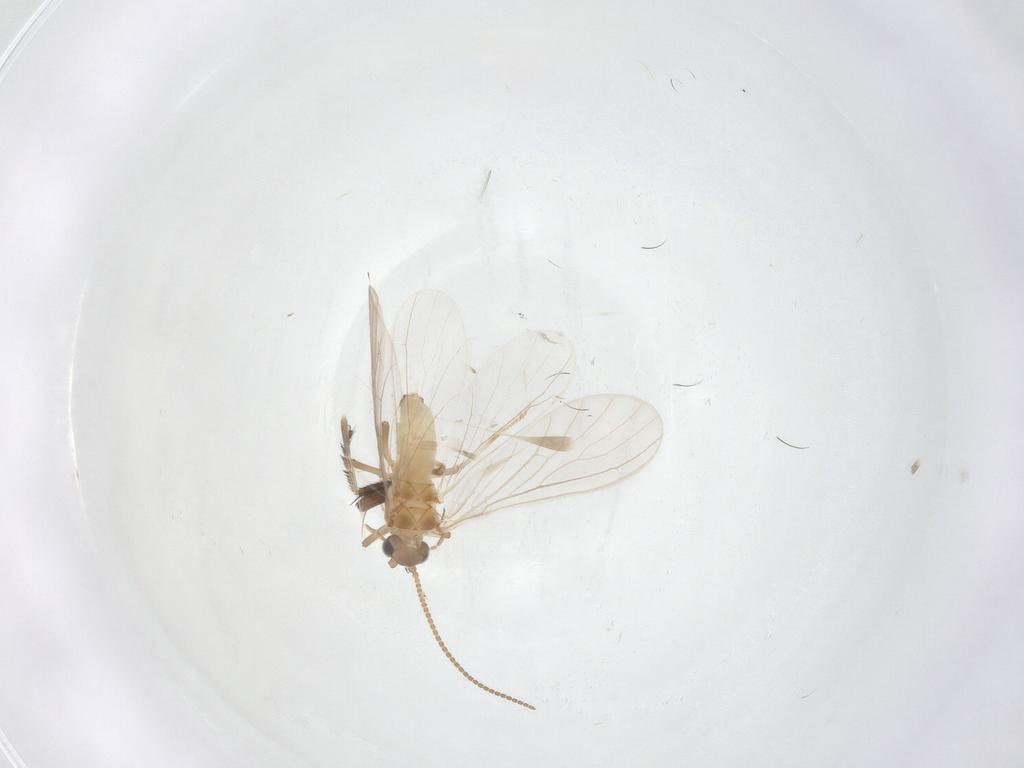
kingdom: Animalia
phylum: Arthropoda
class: Insecta
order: Neuroptera
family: Coniopterygidae
